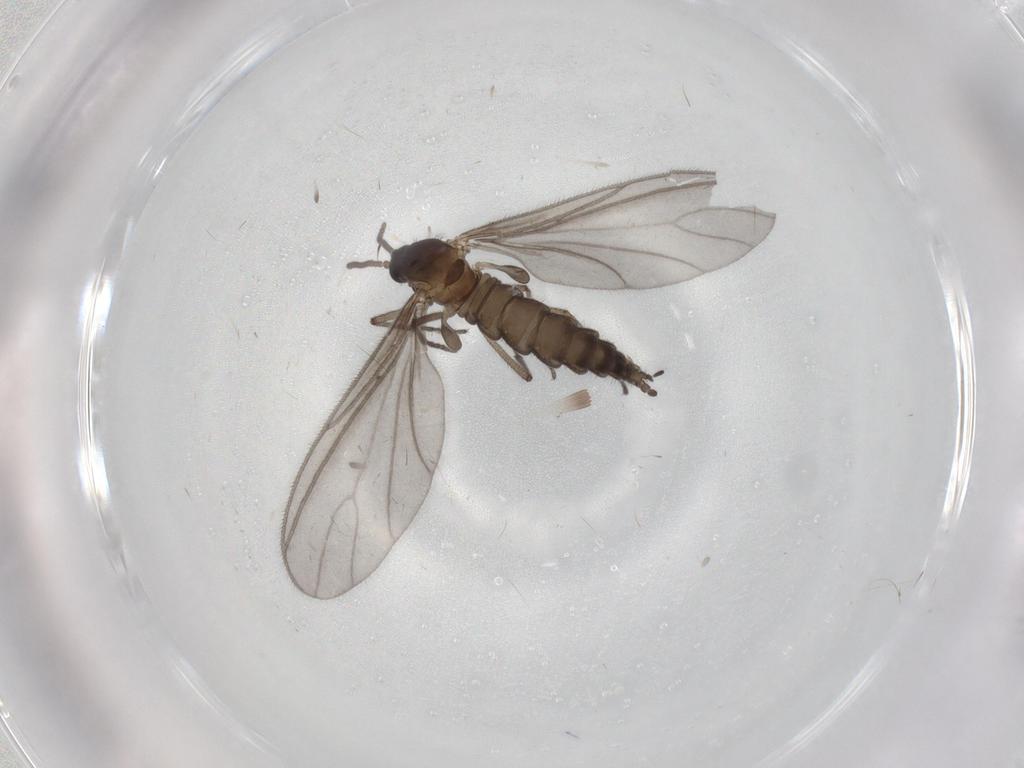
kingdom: Animalia
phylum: Arthropoda
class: Insecta
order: Diptera
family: Sciaridae
